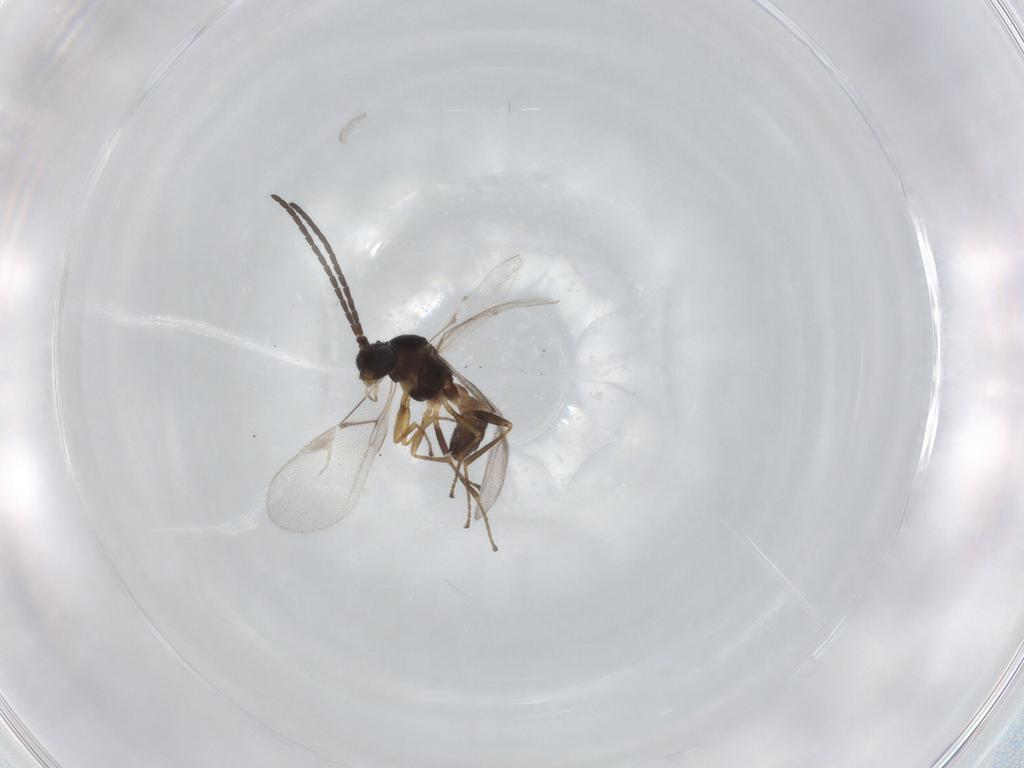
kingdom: Animalia
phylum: Arthropoda
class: Insecta
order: Hymenoptera
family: Braconidae
